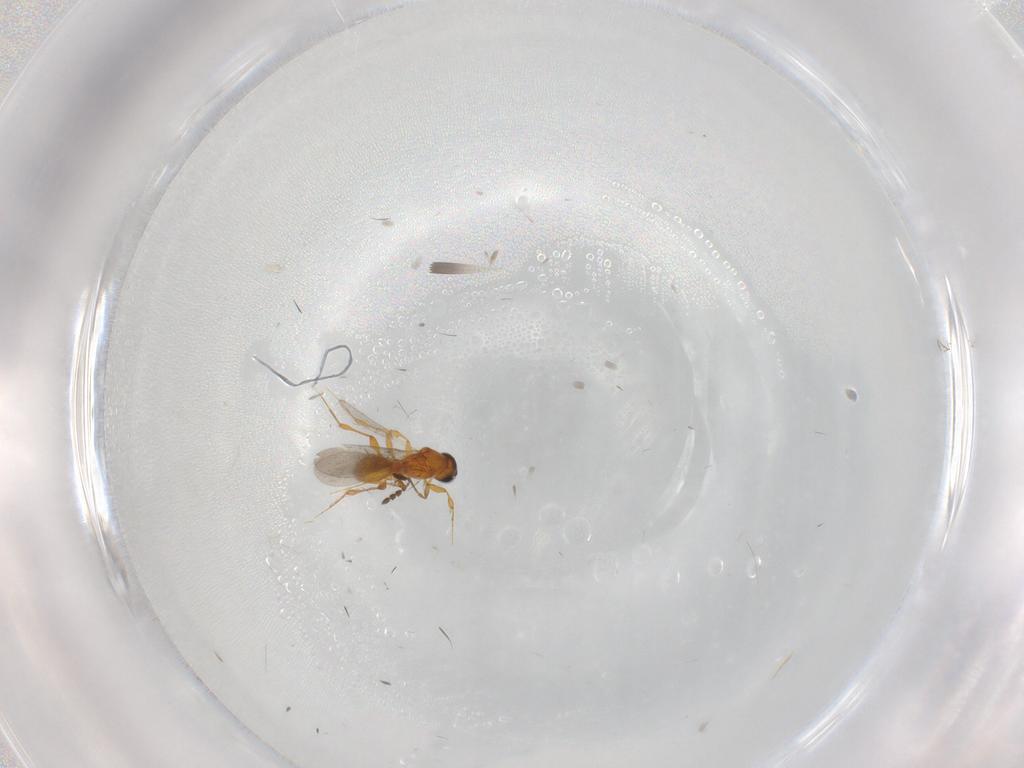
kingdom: Animalia
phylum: Arthropoda
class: Insecta
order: Hymenoptera
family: Platygastridae
